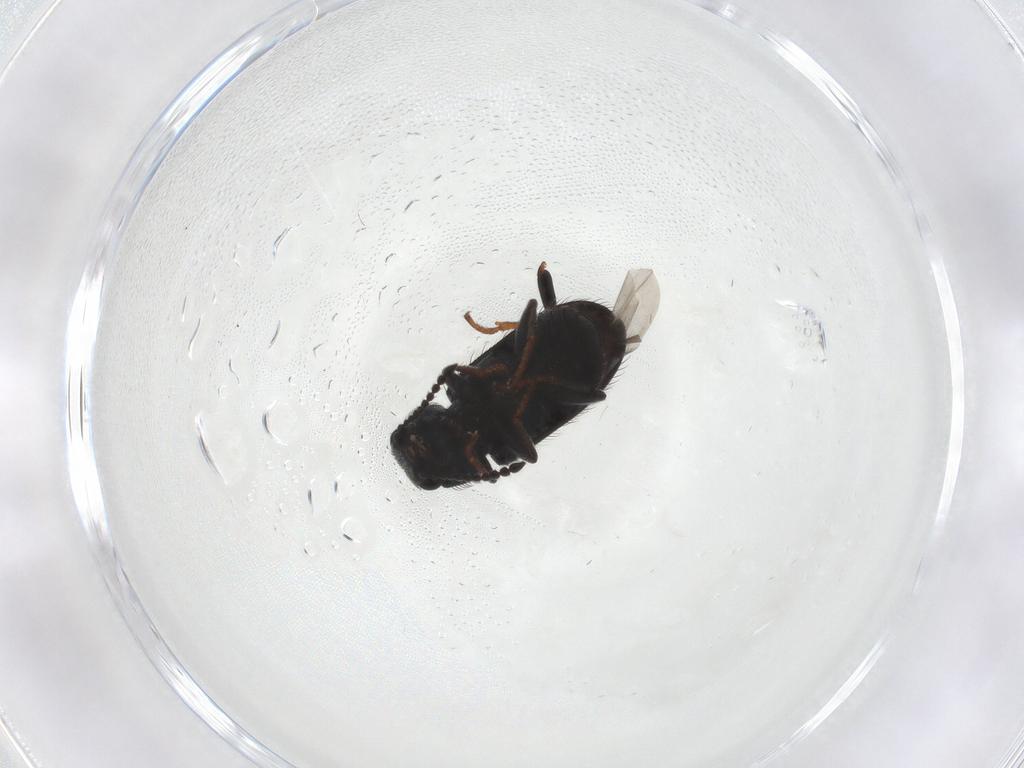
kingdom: Animalia
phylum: Arthropoda
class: Insecta
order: Coleoptera
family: Melyridae
